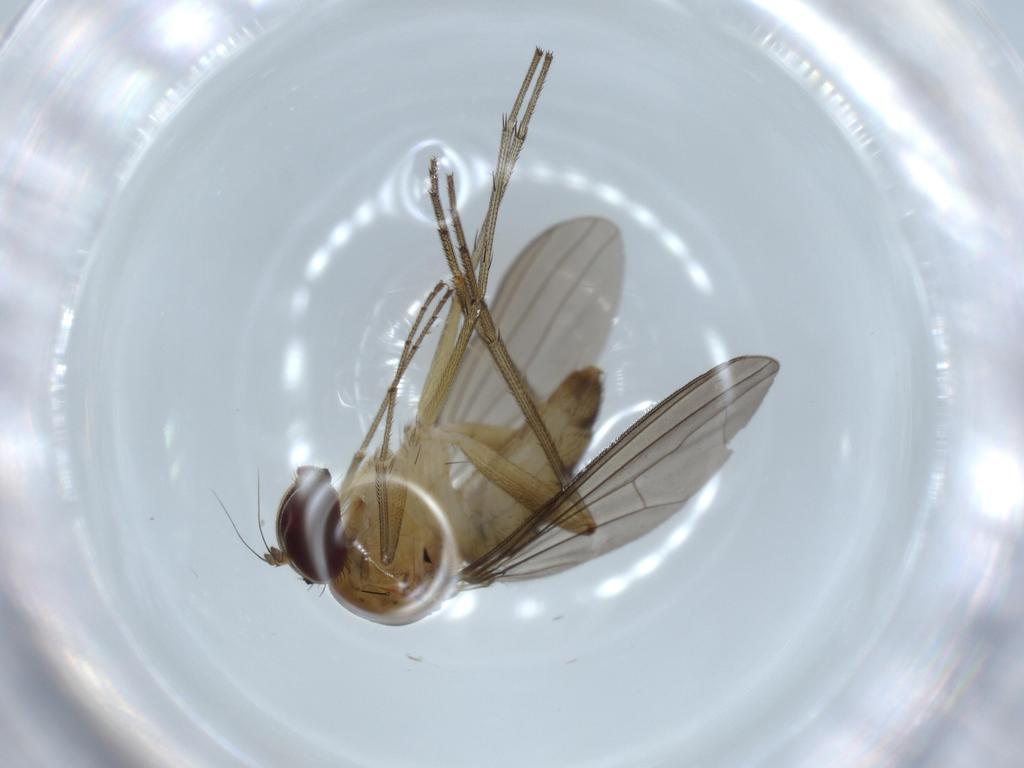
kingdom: Animalia
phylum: Arthropoda
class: Insecta
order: Diptera
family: Dolichopodidae
